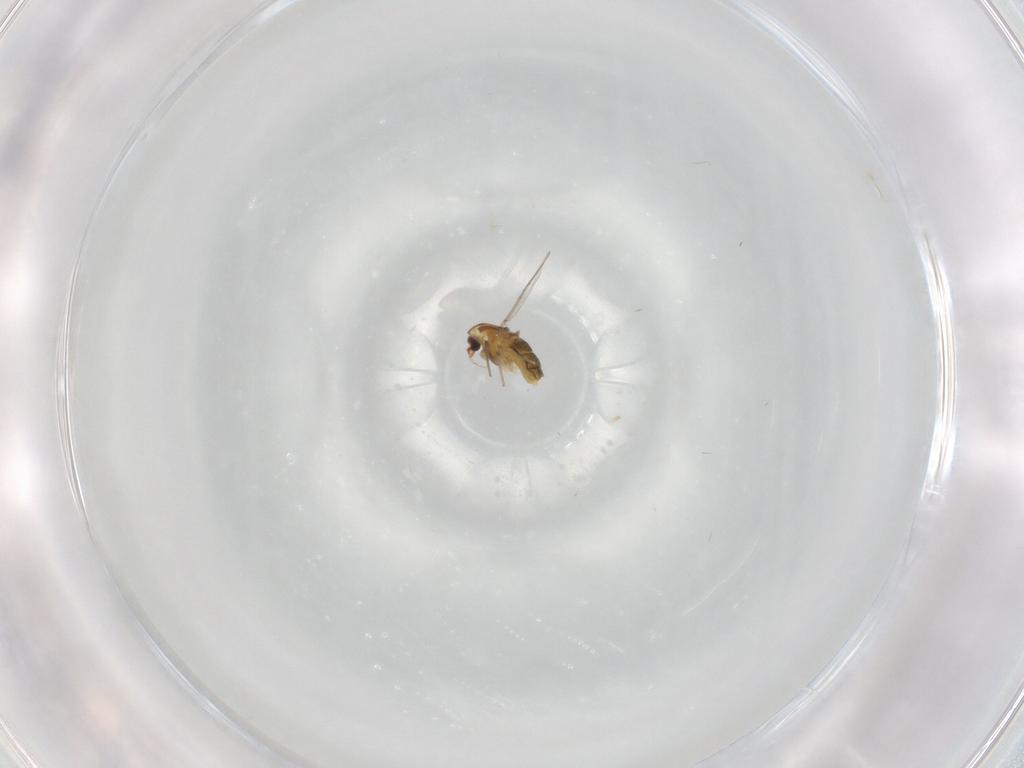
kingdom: Animalia
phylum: Arthropoda
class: Insecta
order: Diptera
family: Chironomidae
